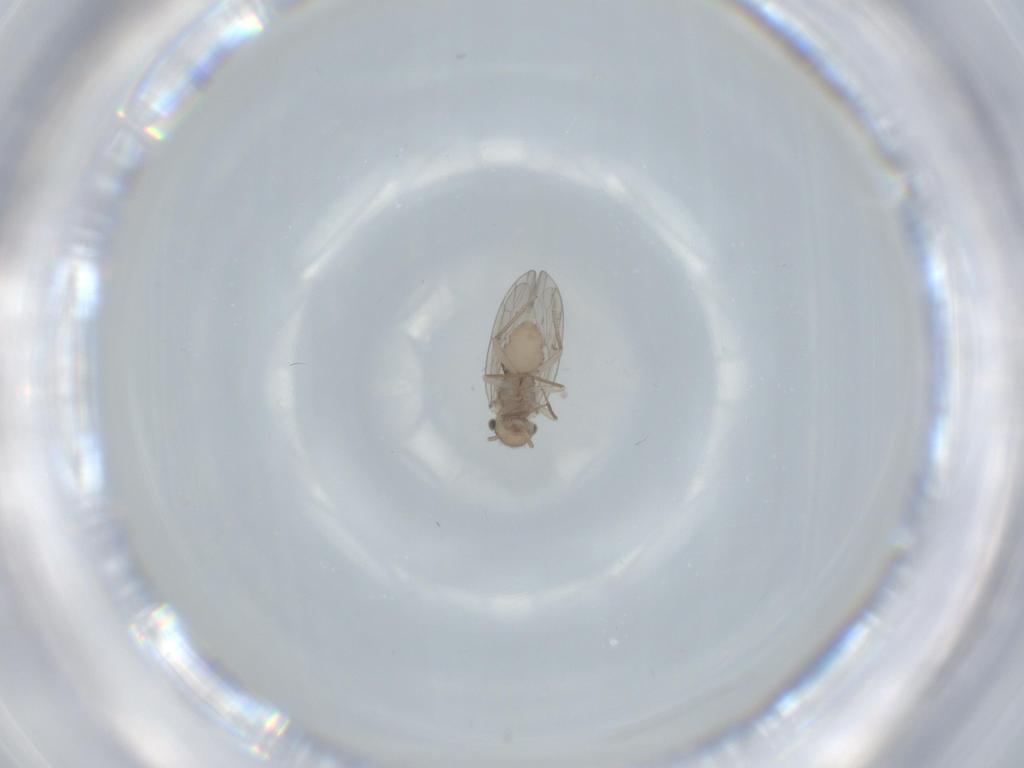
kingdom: Animalia
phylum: Arthropoda
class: Insecta
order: Psocodea
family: Ectopsocidae
